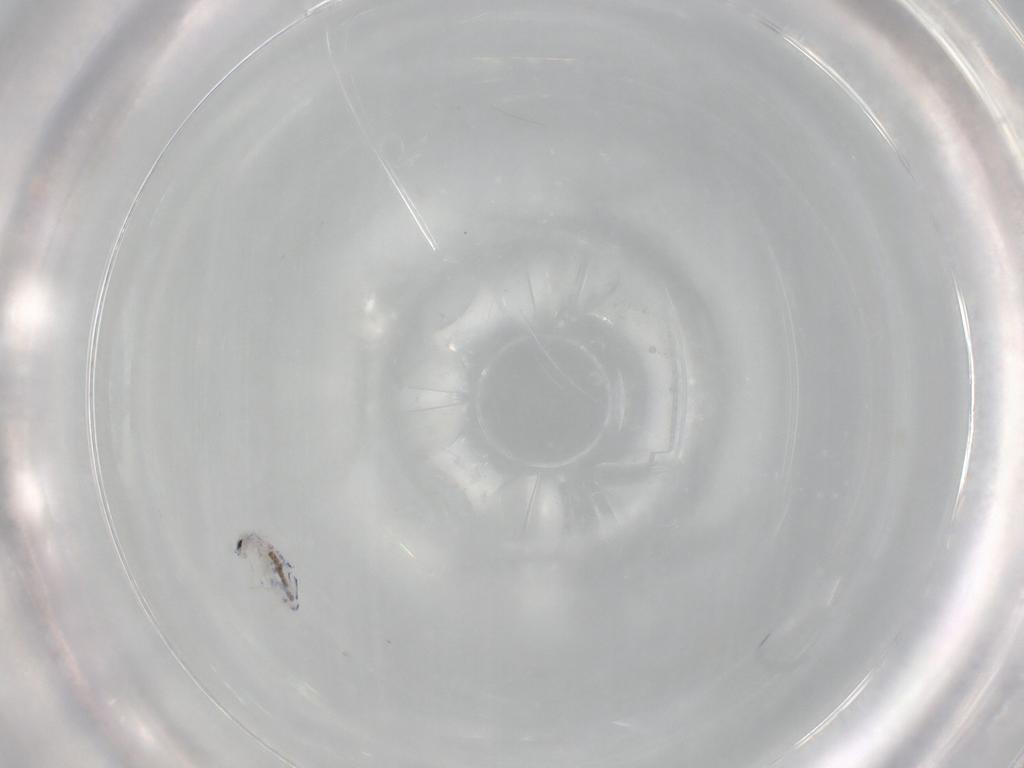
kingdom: Animalia
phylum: Arthropoda
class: Collembola
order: Entomobryomorpha
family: Entomobryidae
